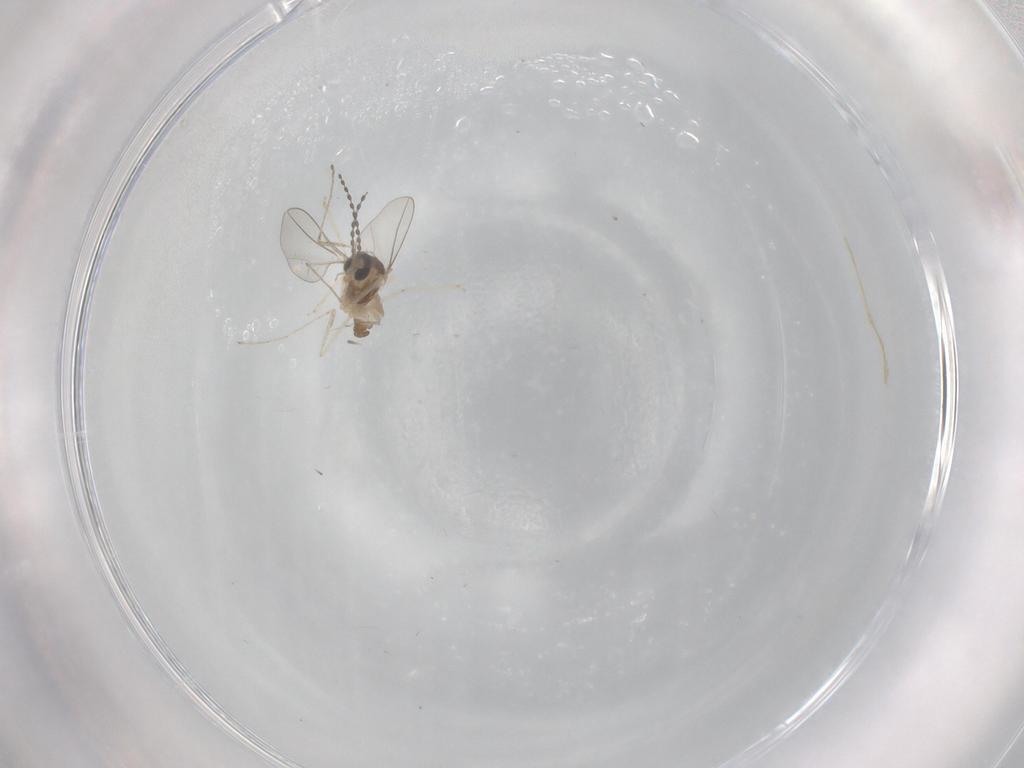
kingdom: Animalia
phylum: Arthropoda
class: Insecta
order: Diptera
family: Cecidomyiidae
